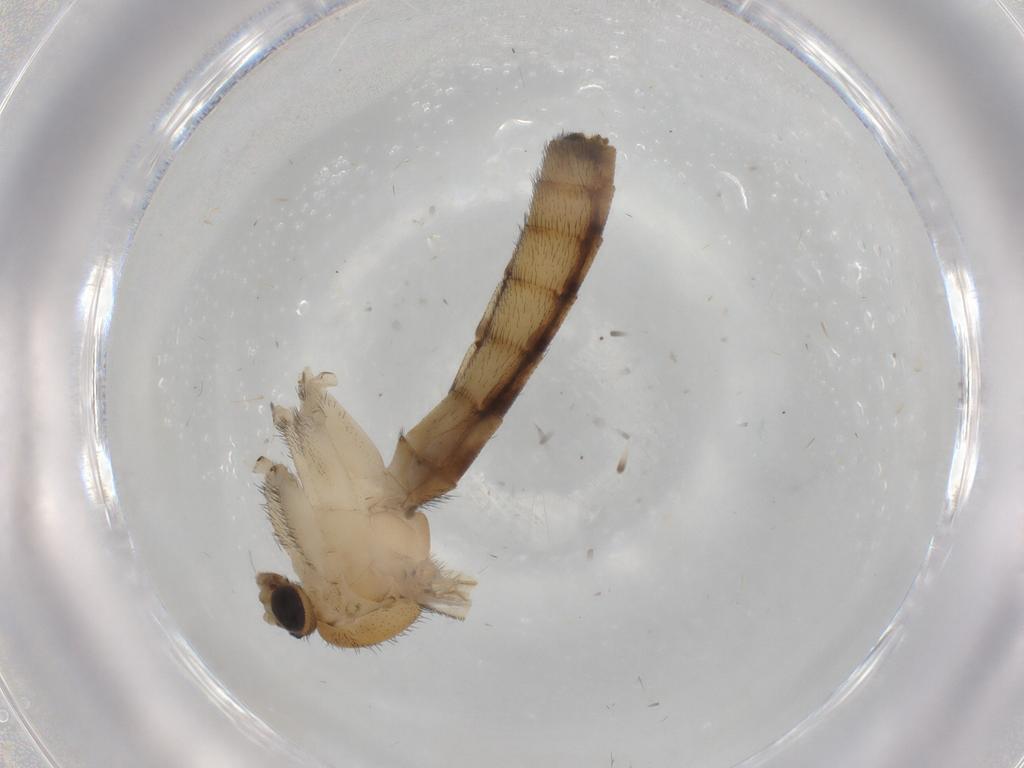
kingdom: Animalia
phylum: Arthropoda
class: Insecta
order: Diptera
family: Keroplatidae
